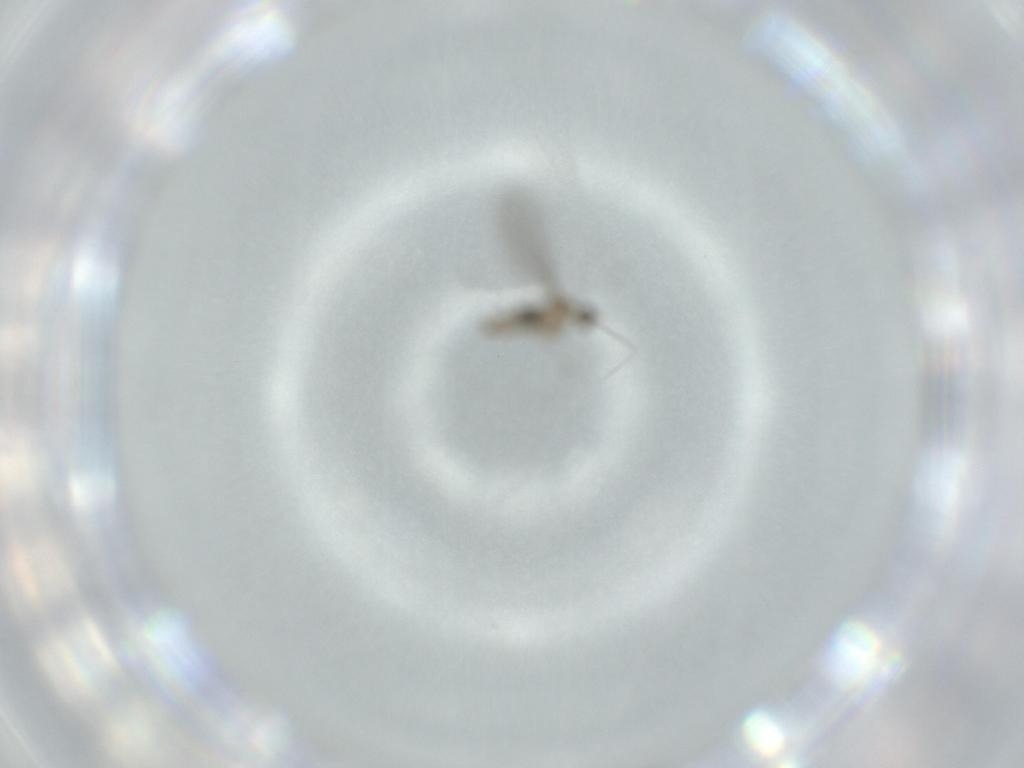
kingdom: Animalia
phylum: Arthropoda
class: Insecta
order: Diptera
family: Cecidomyiidae
